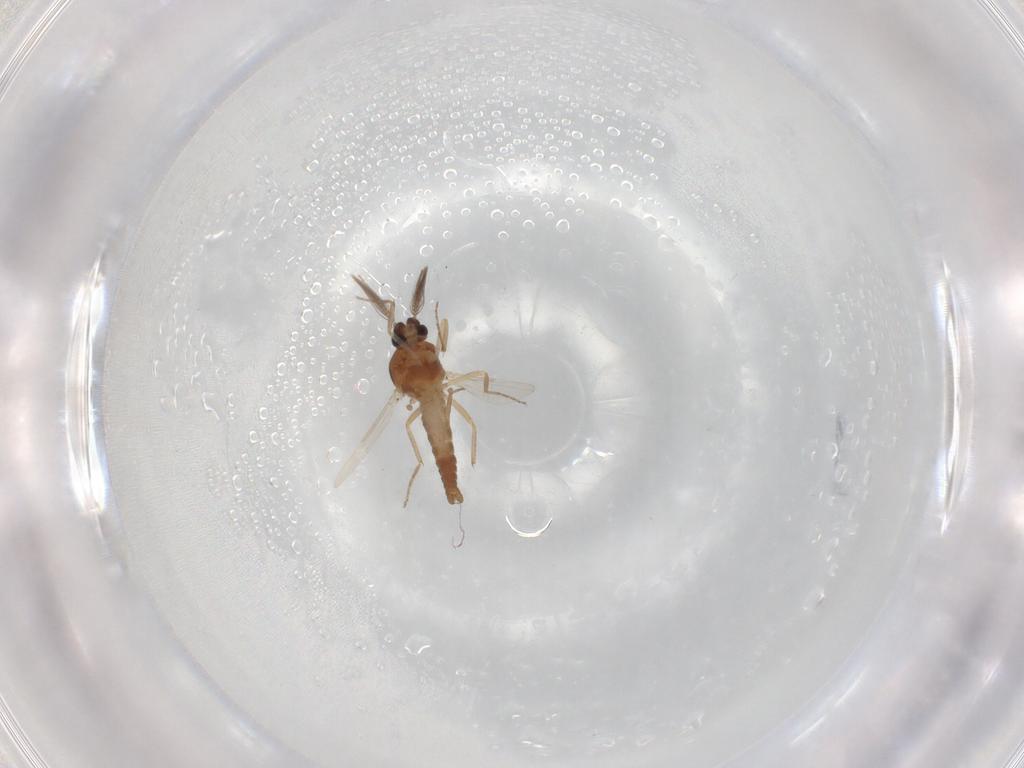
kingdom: Animalia
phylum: Arthropoda
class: Insecta
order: Diptera
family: Ceratopogonidae
